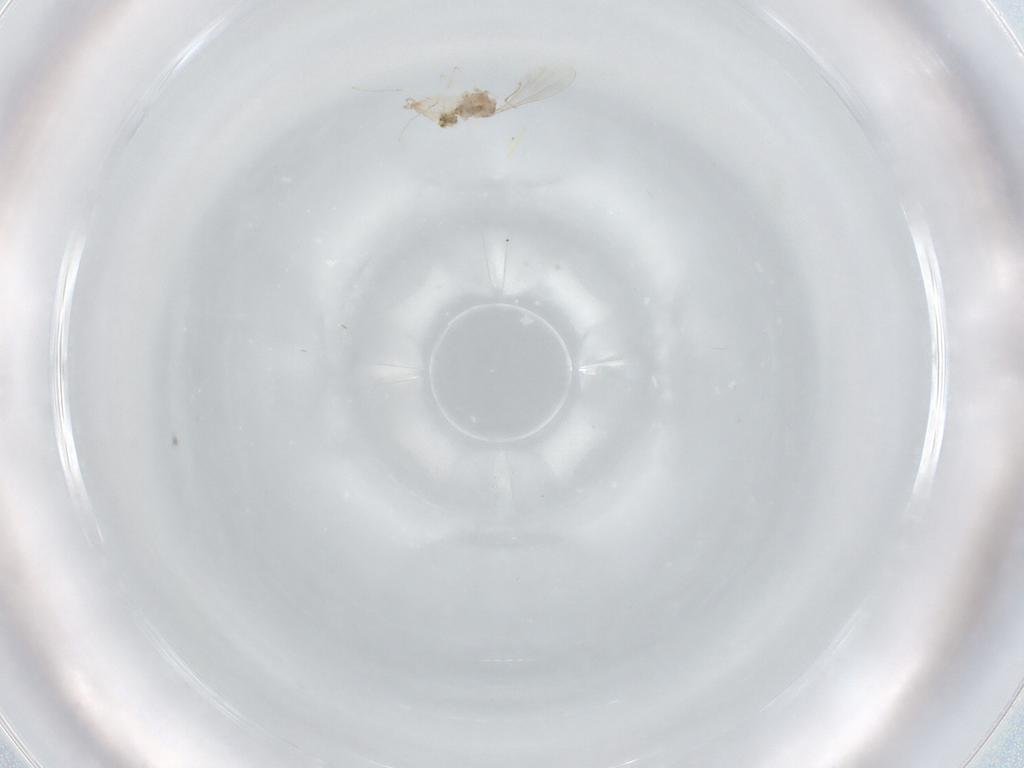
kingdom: Animalia
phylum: Arthropoda
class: Insecta
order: Diptera
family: Cecidomyiidae
